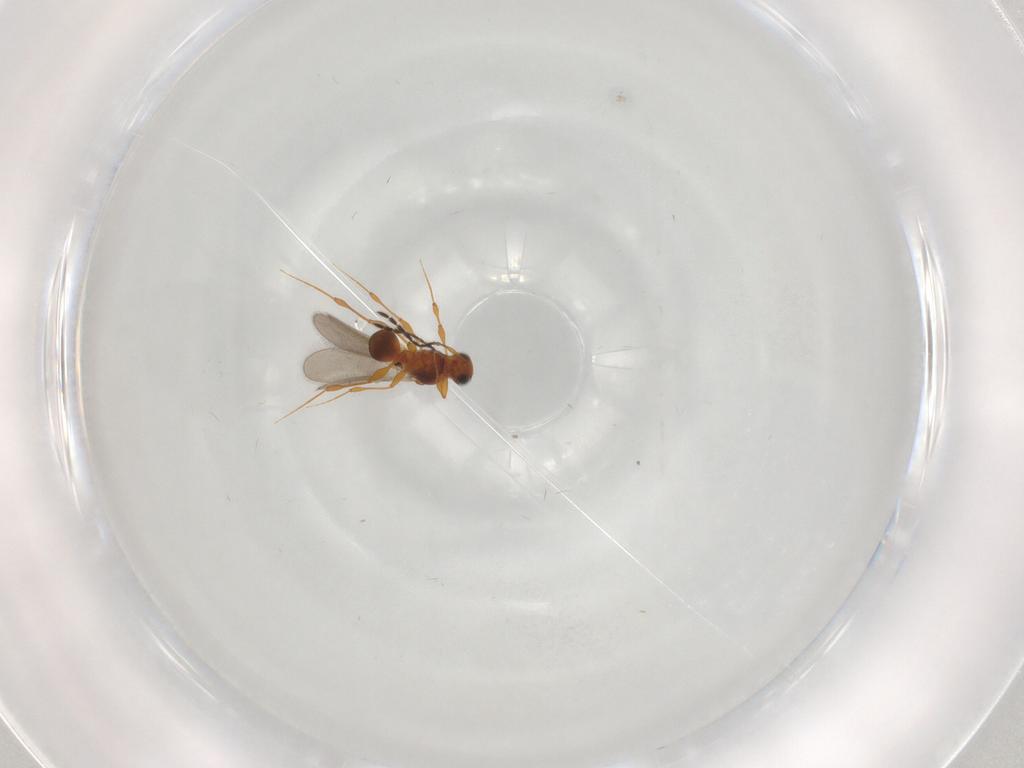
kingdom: Animalia
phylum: Arthropoda
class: Insecta
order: Hymenoptera
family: Platygastridae
